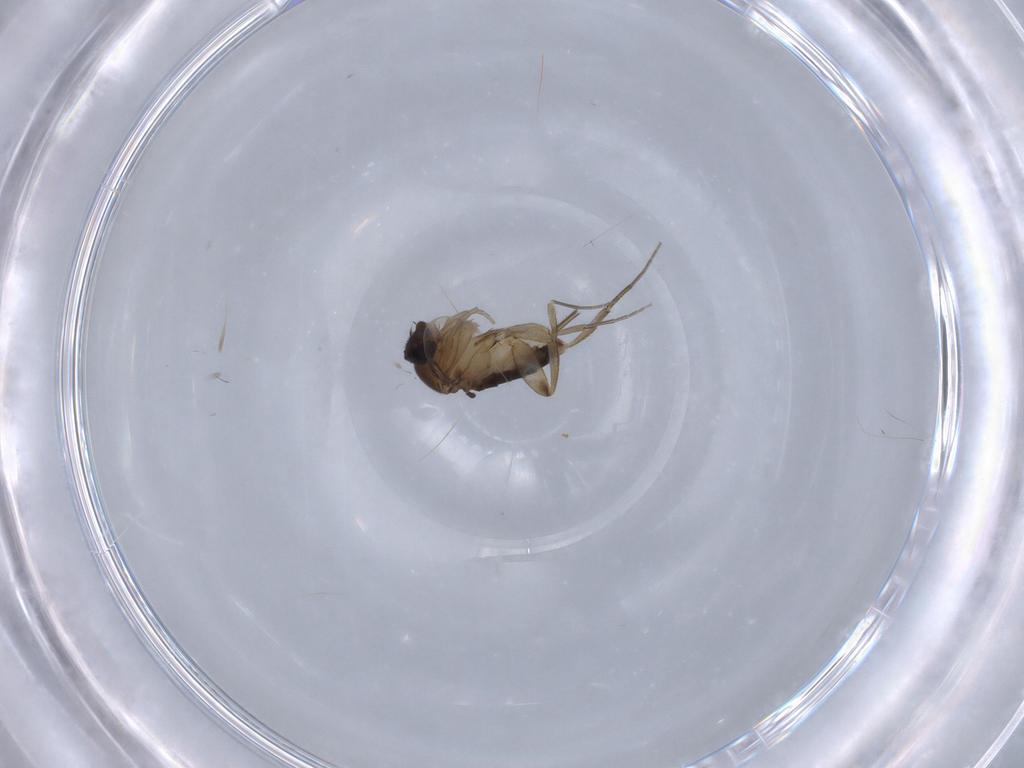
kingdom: Animalia
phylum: Arthropoda
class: Insecta
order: Diptera
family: Phoridae
